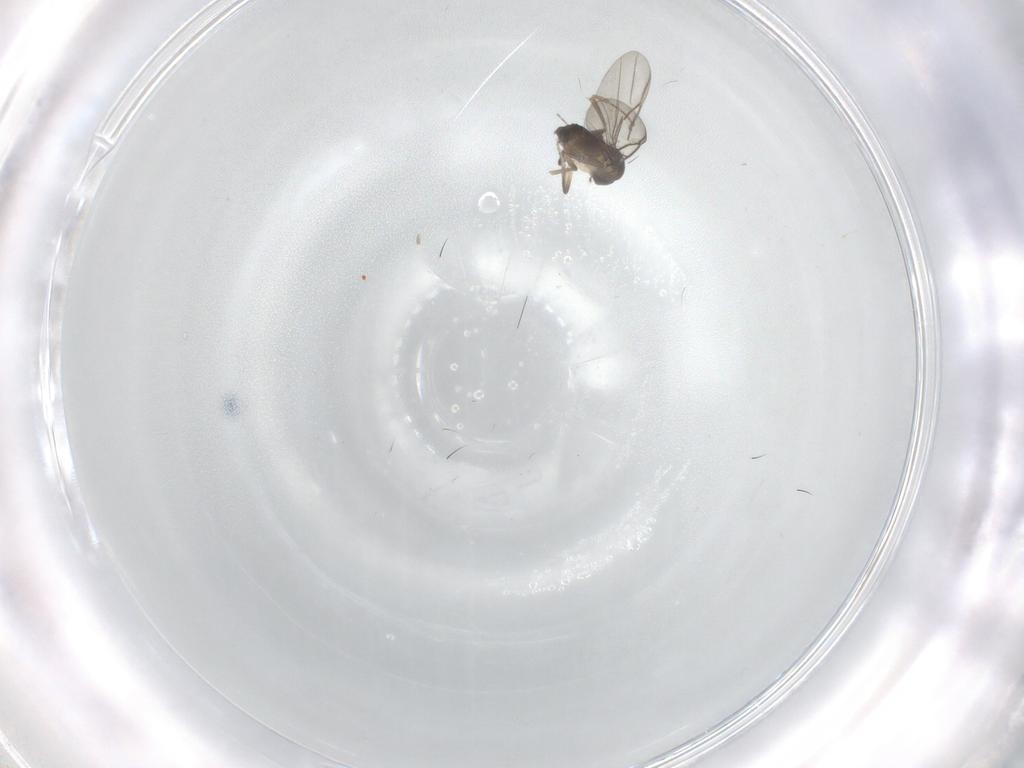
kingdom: Animalia
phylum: Arthropoda
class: Insecta
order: Diptera
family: Phoridae
